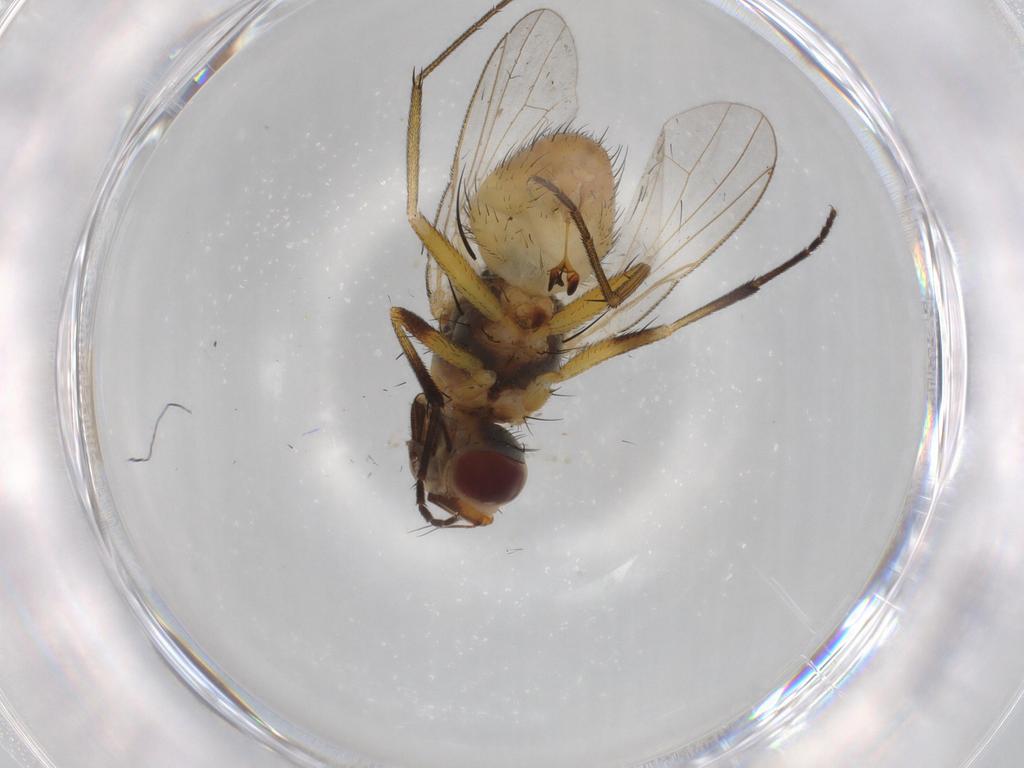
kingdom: Animalia
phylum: Arthropoda
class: Insecta
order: Diptera
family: Muscidae
